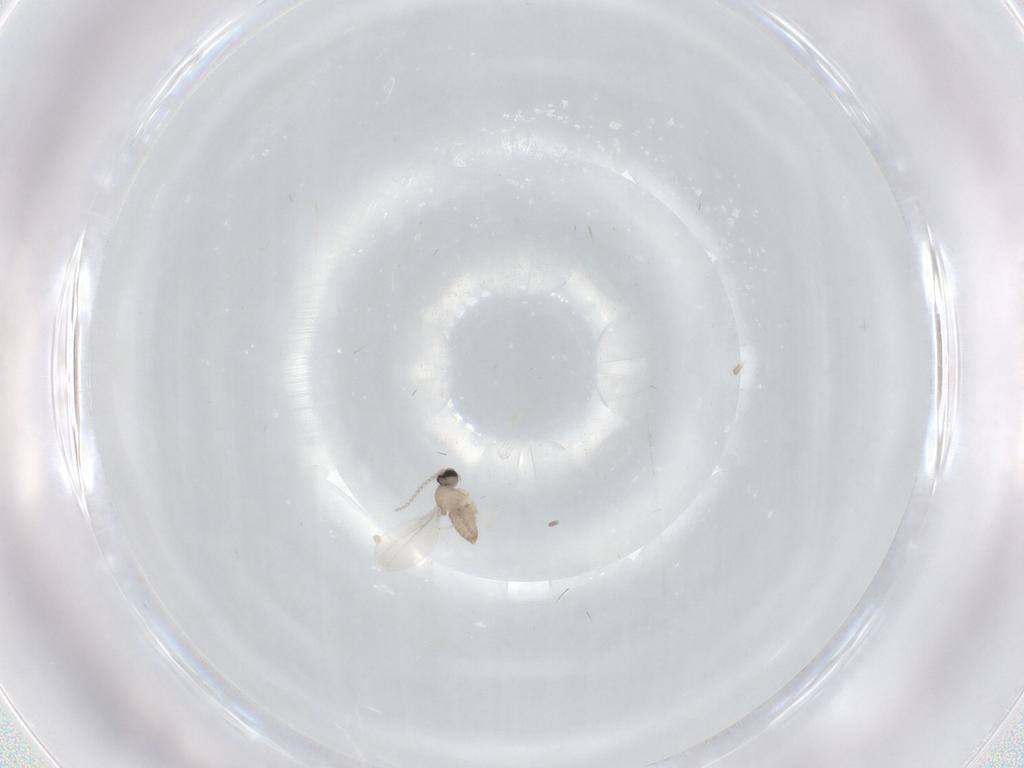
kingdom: Animalia
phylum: Arthropoda
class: Insecta
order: Diptera
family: Cecidomyiidae
